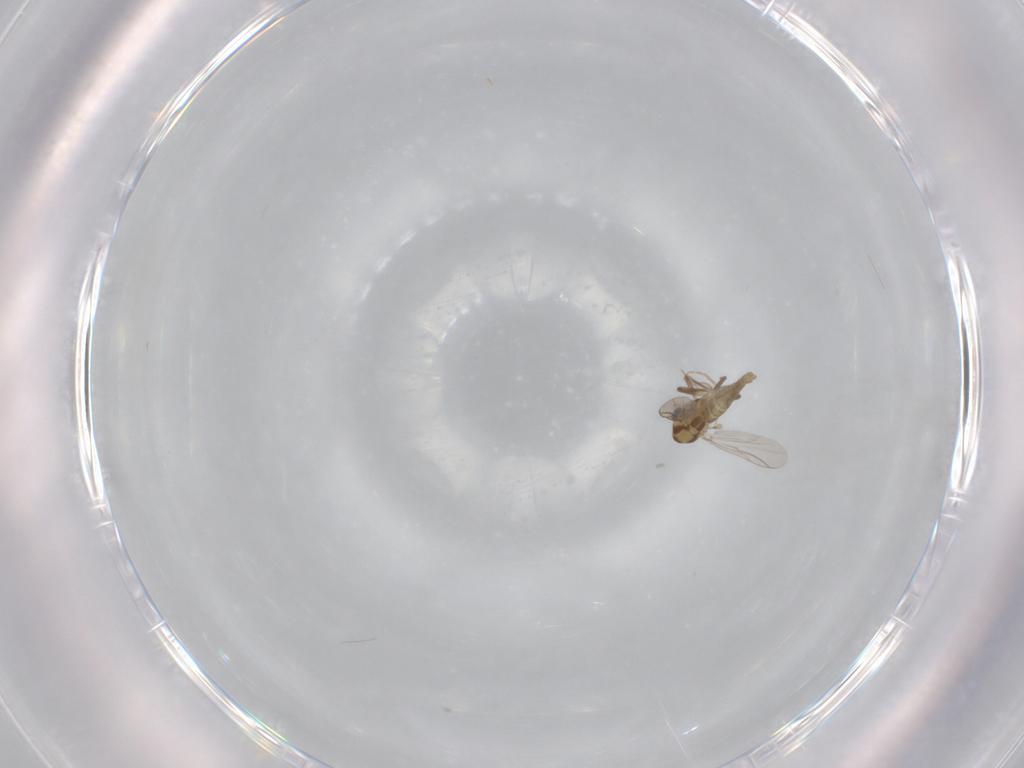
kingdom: Animalia
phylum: Arthropoda
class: Insecta
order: Diptera
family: Chironomidae
